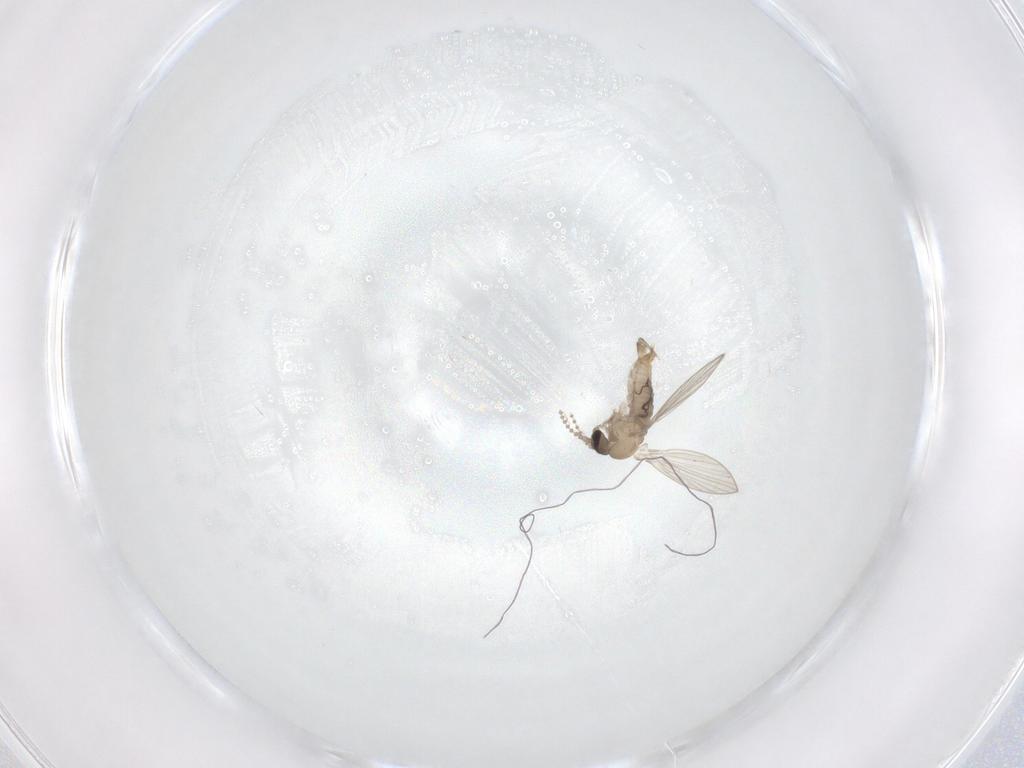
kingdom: Animalia
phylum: Arthropoda
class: Insecta
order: Diptera
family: Psychodidae
